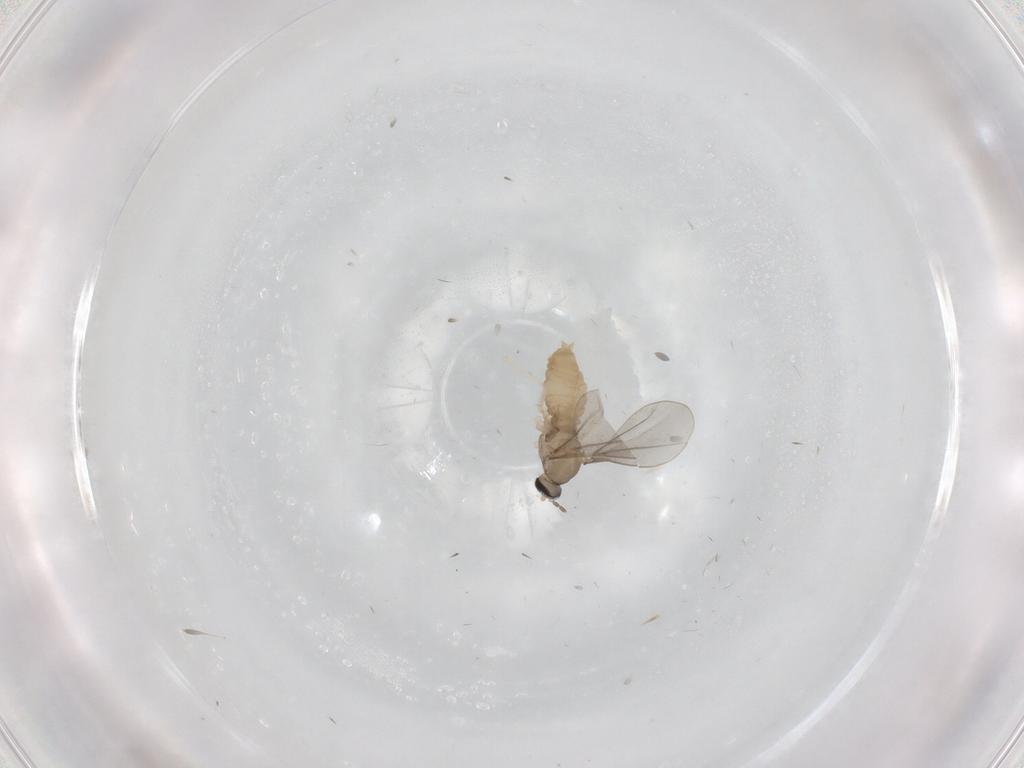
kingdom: Animalia
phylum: Arthropoda
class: Insecta
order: Diptera
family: Cecidomyiidae
